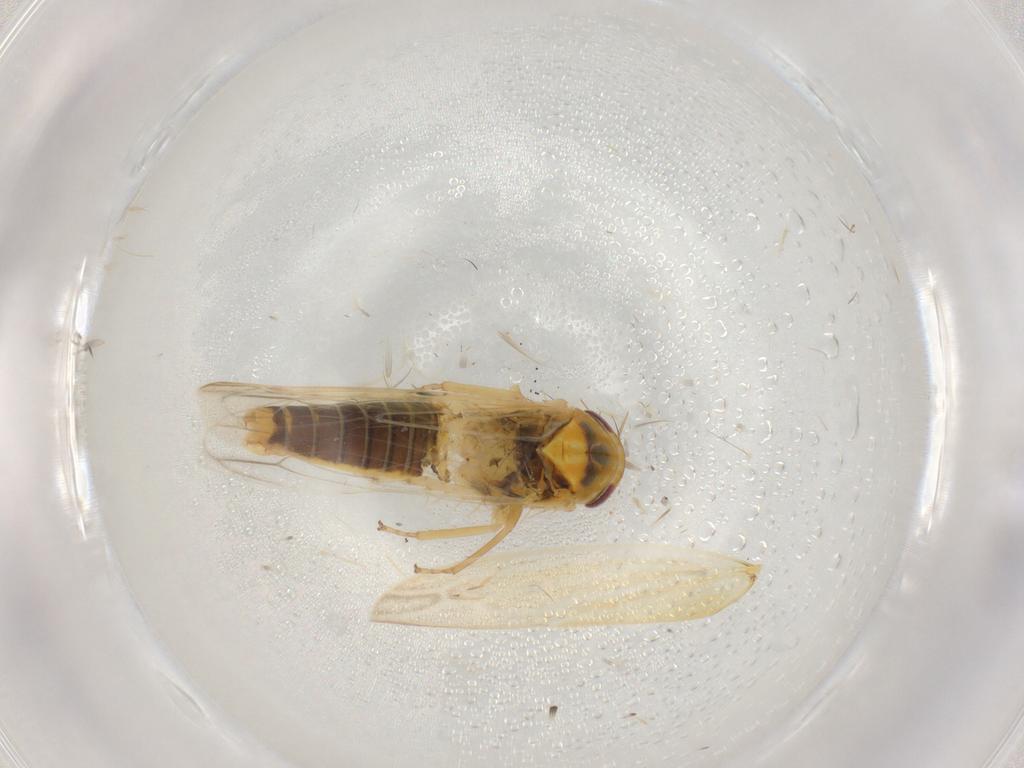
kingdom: Animalia
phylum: Arthropoda
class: Insecta
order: Hemiptera
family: Cicadellidae
